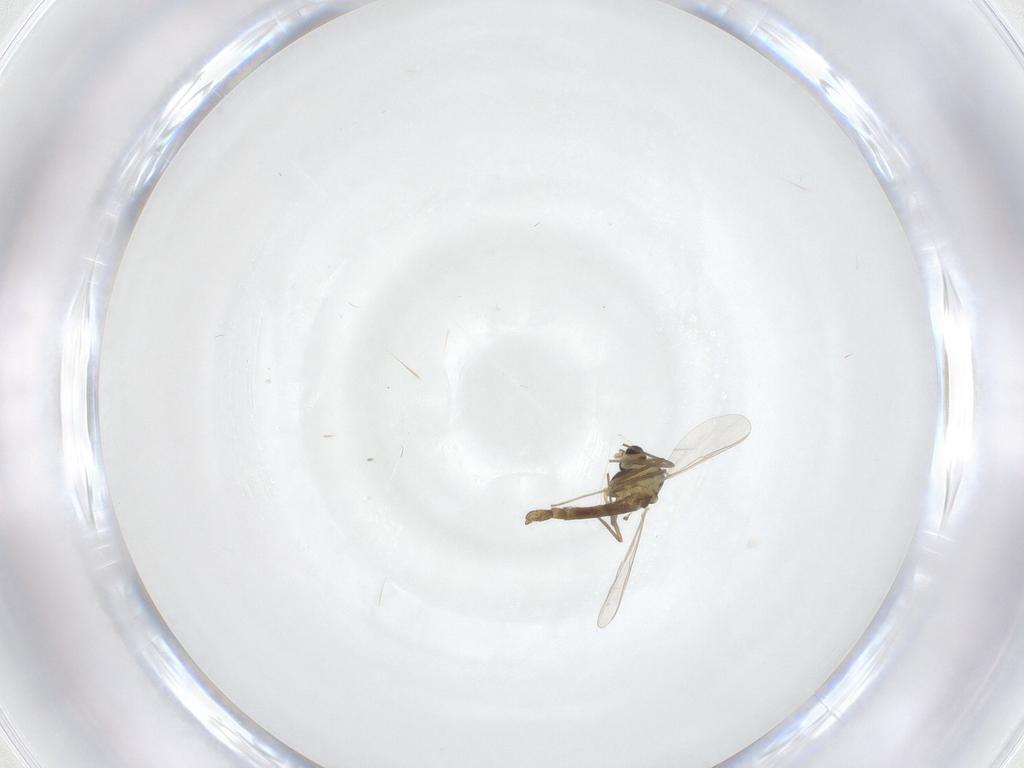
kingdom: Animalia
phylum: Arthropoda
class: Insecta
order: Diptera
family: Chironomidae
